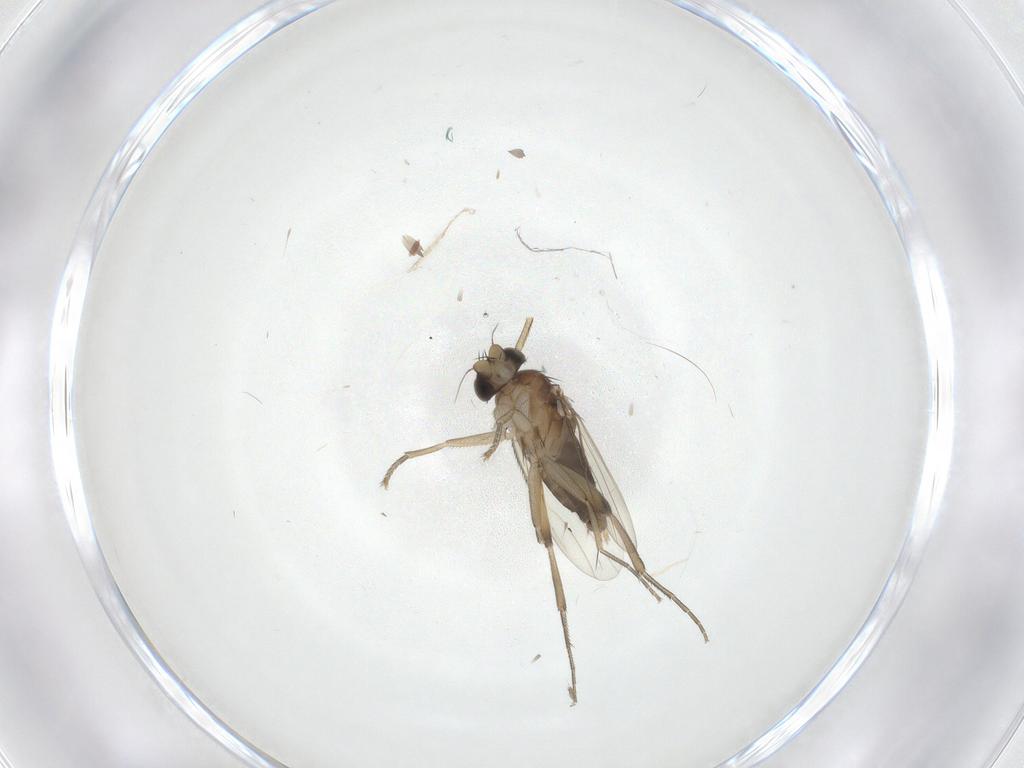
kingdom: Animalia
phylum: Arthropoda
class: Insecta
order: Diptera
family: Phoridae
